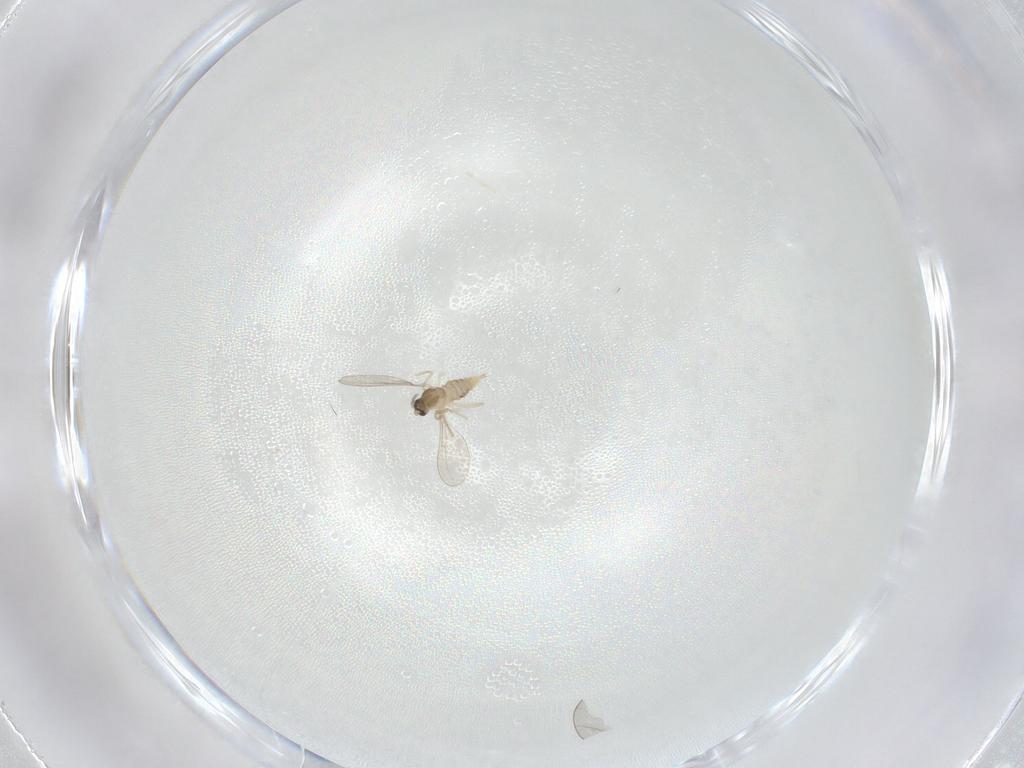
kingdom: Animalia
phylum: Arthropoda
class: Insecta
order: Diptera
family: Cecidomyiidae
